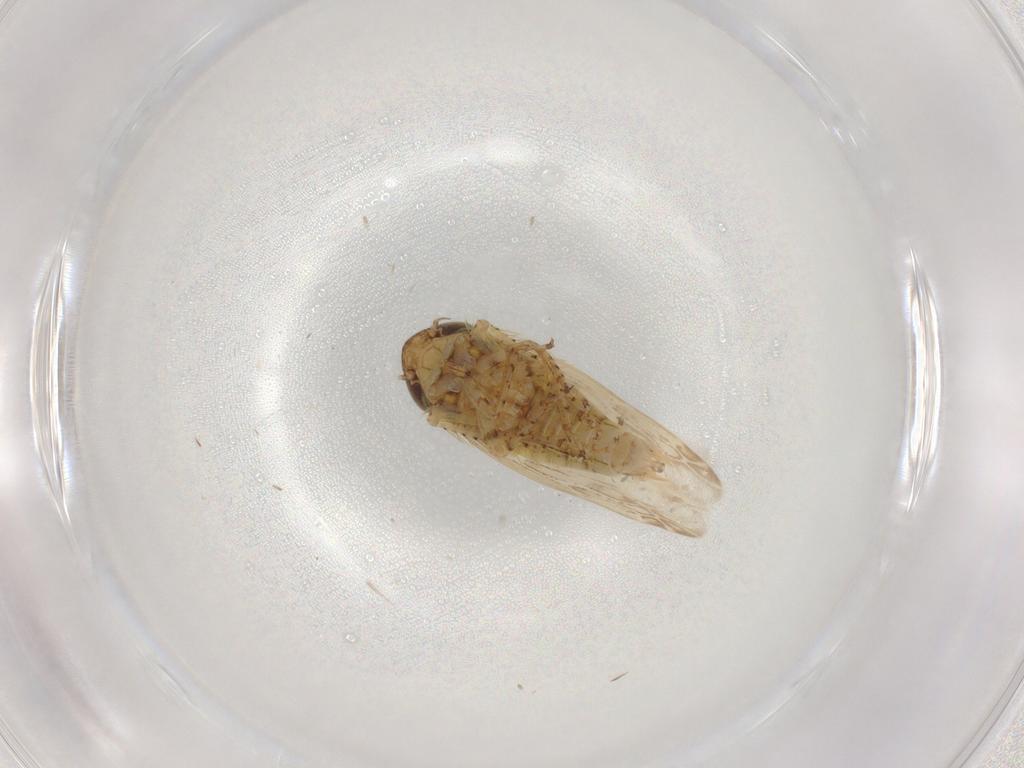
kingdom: Animalia
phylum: Arthropoda
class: Insecta
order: Hemiptera
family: Cicadellidae
